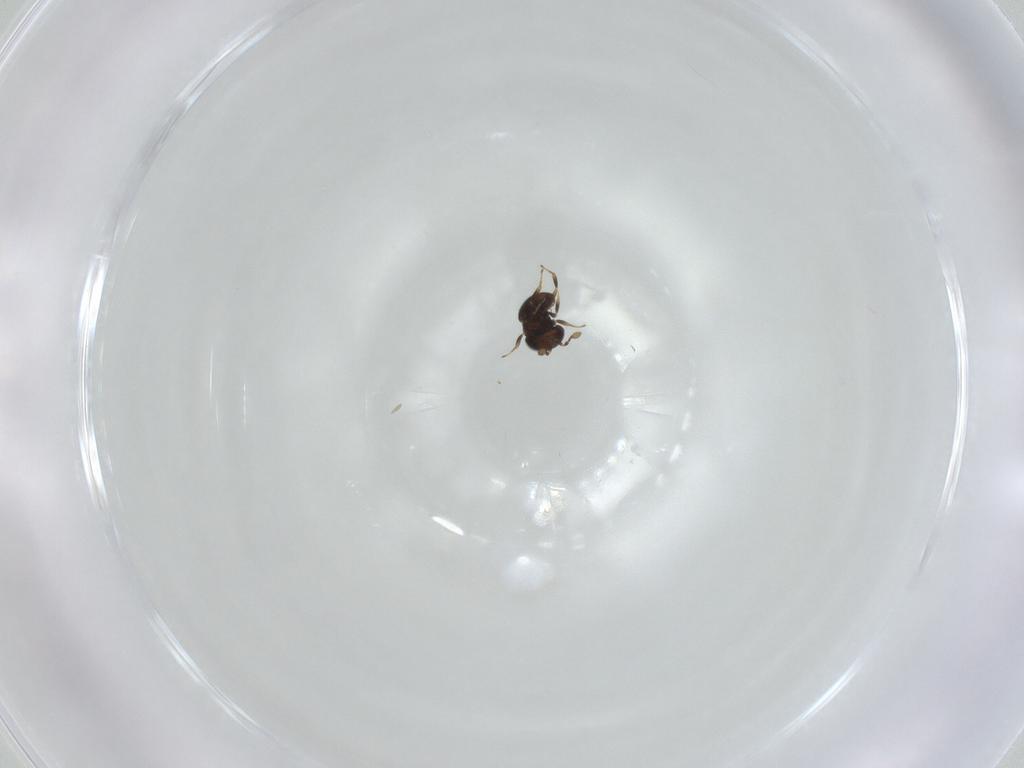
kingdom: Animalia
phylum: Arthropoda
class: Insecta
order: Hymenoptera
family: Scelionidae
